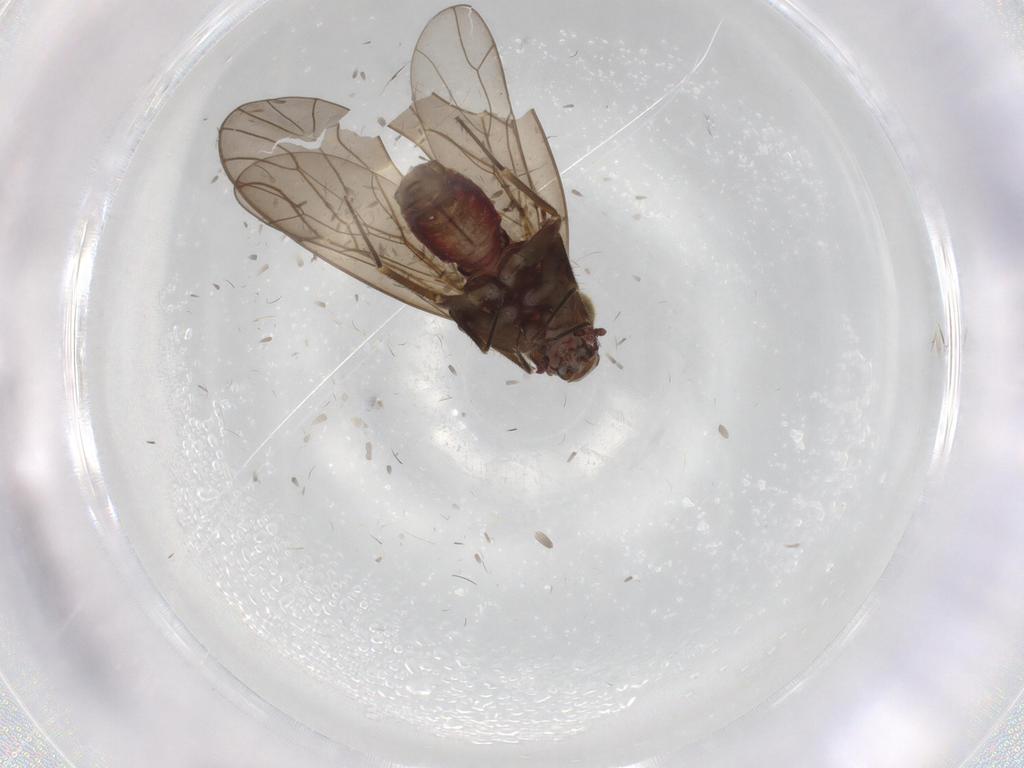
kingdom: Animalia
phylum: Arthropoda
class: Insecta
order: Psocodea
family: Philotarsidae
